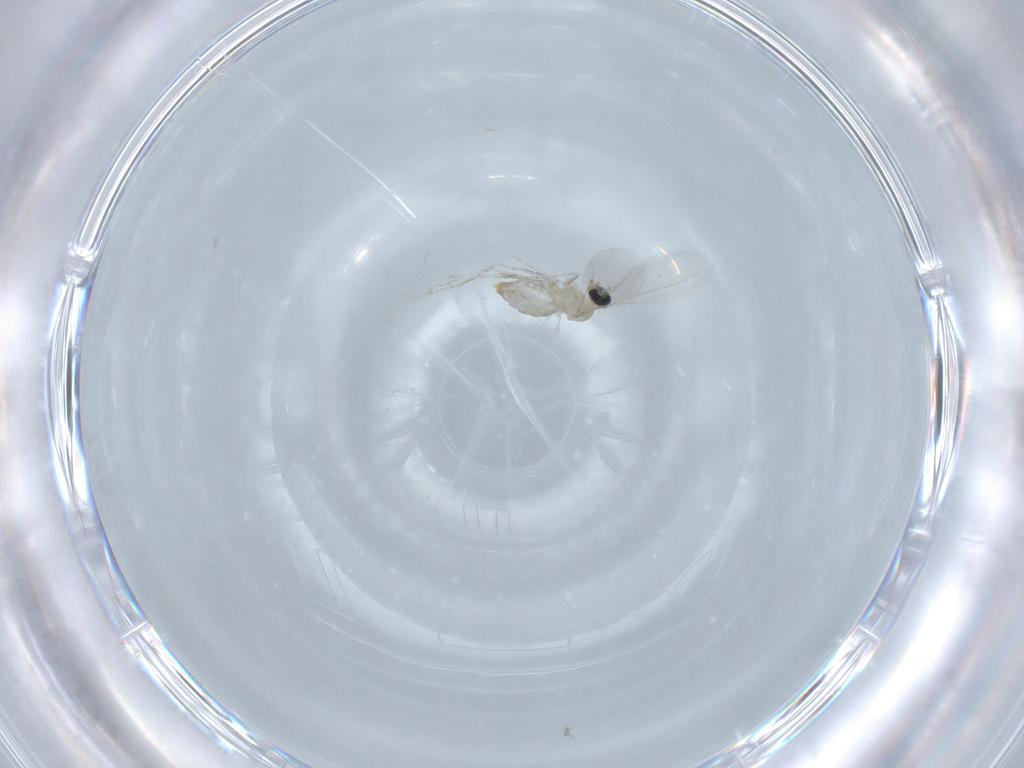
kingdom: Animalia
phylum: Arthropoda
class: Insecta
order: Diptera
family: Cecidomyiidae
